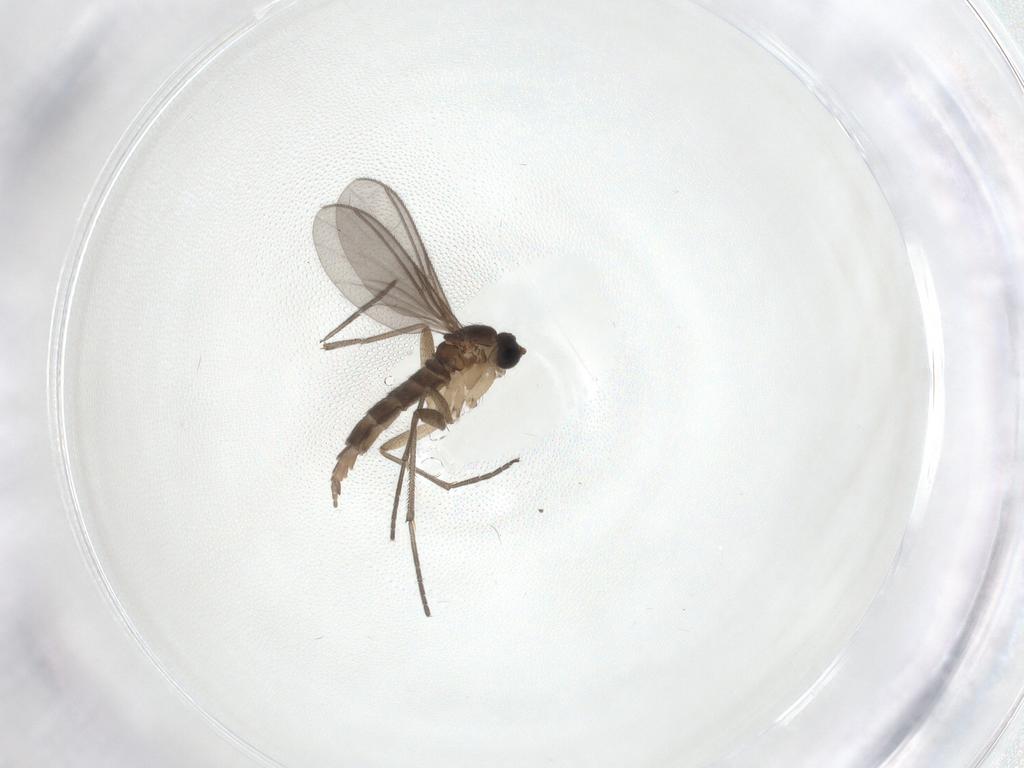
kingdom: Animalia
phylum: Arthropoda
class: Insecta
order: Diptera
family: Sciaridae
